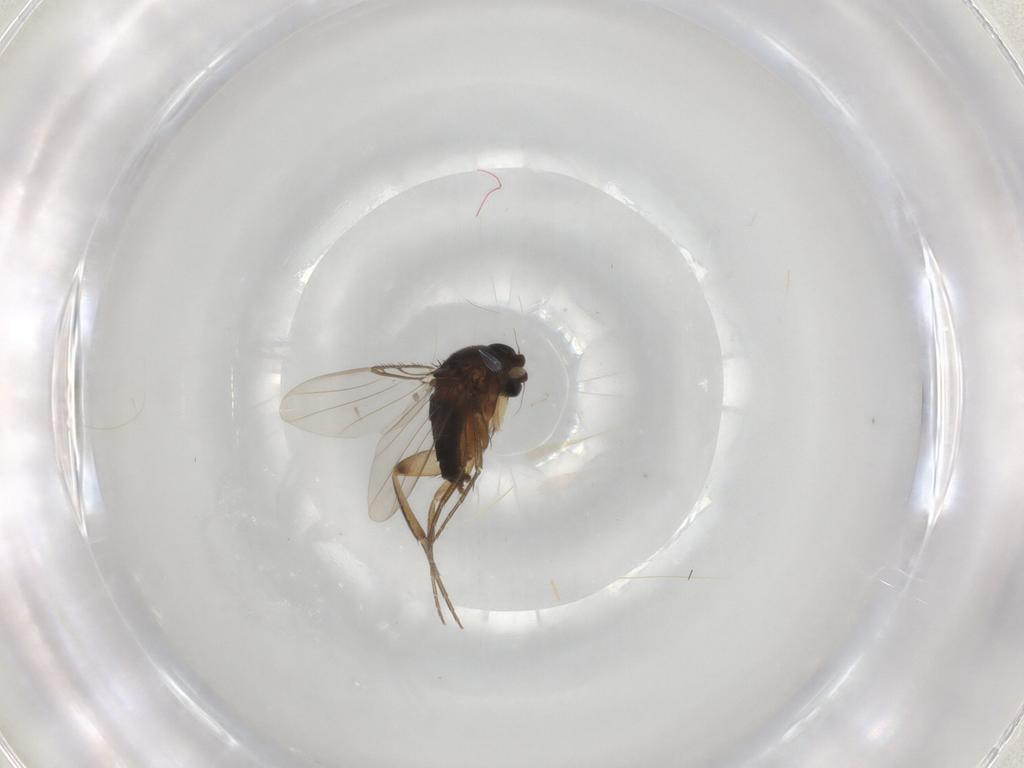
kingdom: Animalia
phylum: Arthropoda
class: Insecta
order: Diptera
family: Phoridae
